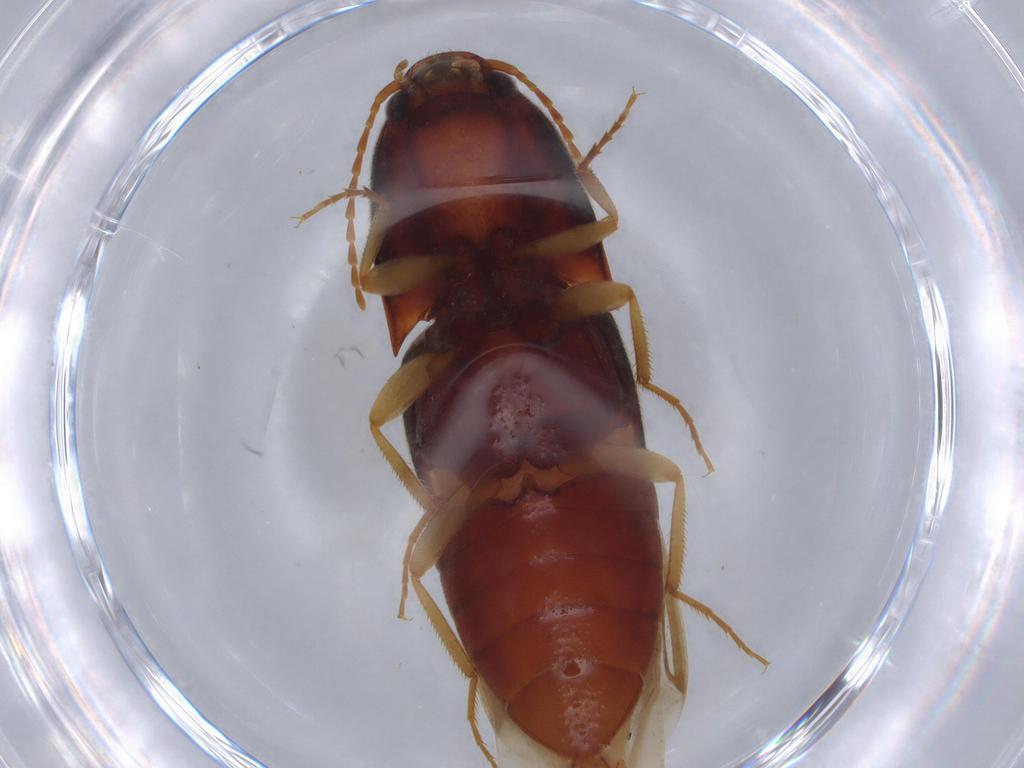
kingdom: Animalia
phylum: Arthropoda
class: Insecta
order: Coleoptera
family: Elateridae
